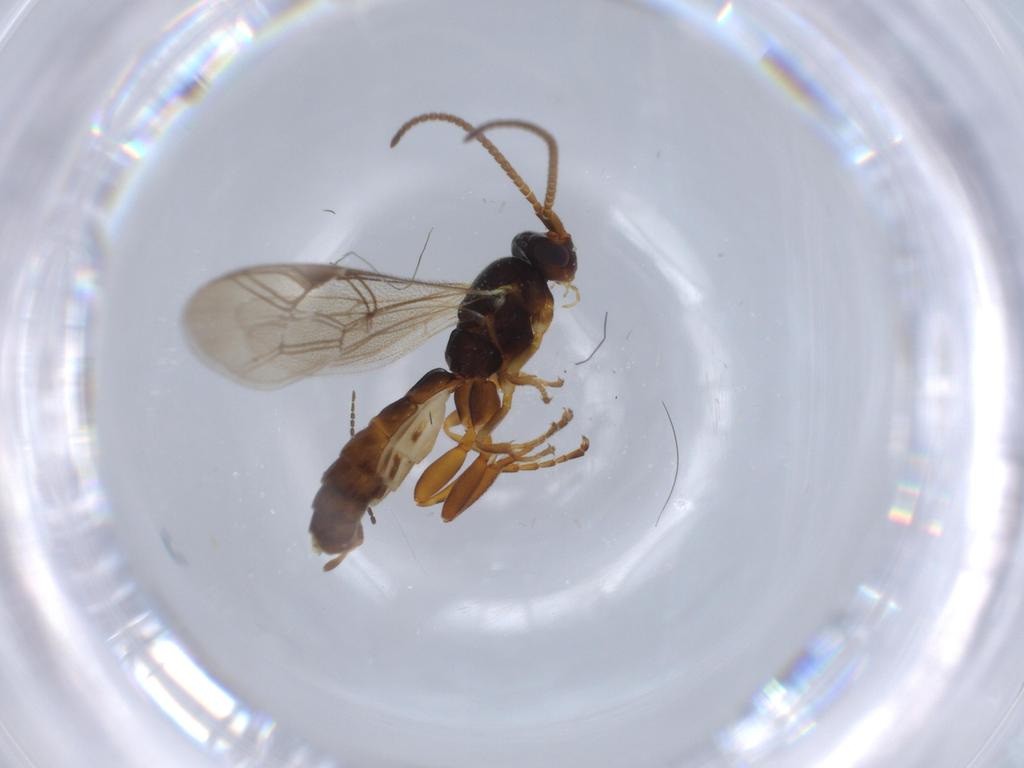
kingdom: Animalia
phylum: Arthropoda
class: Insecta
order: Hymenoptera
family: Ichneumonidae
